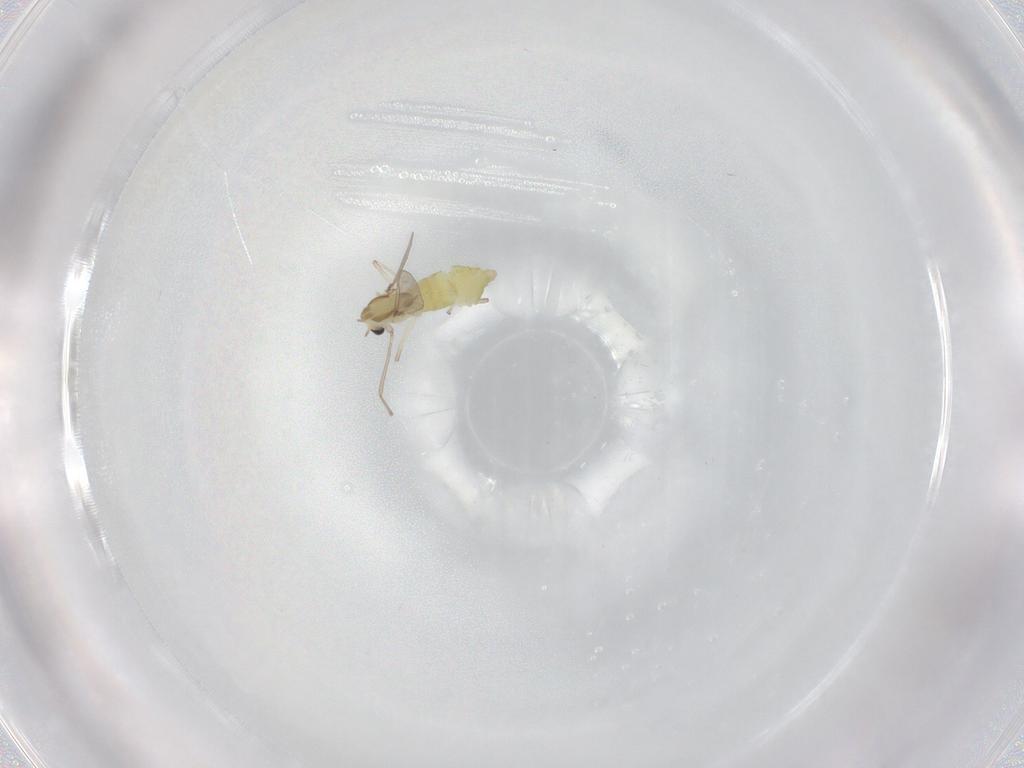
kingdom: Animalia
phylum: Arthropoda
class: Insecta
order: Diptera
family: Chironomidae
